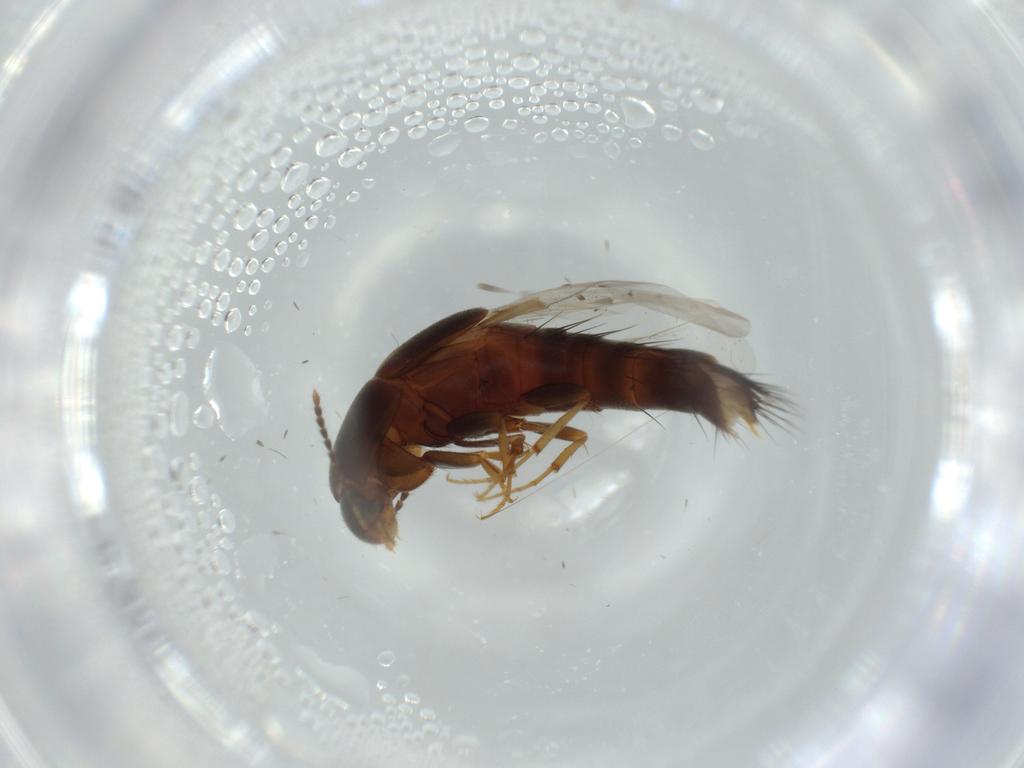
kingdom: Animalia
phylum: Arthropoda
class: Insecta
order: Coleoptera
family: Staphylinidae
